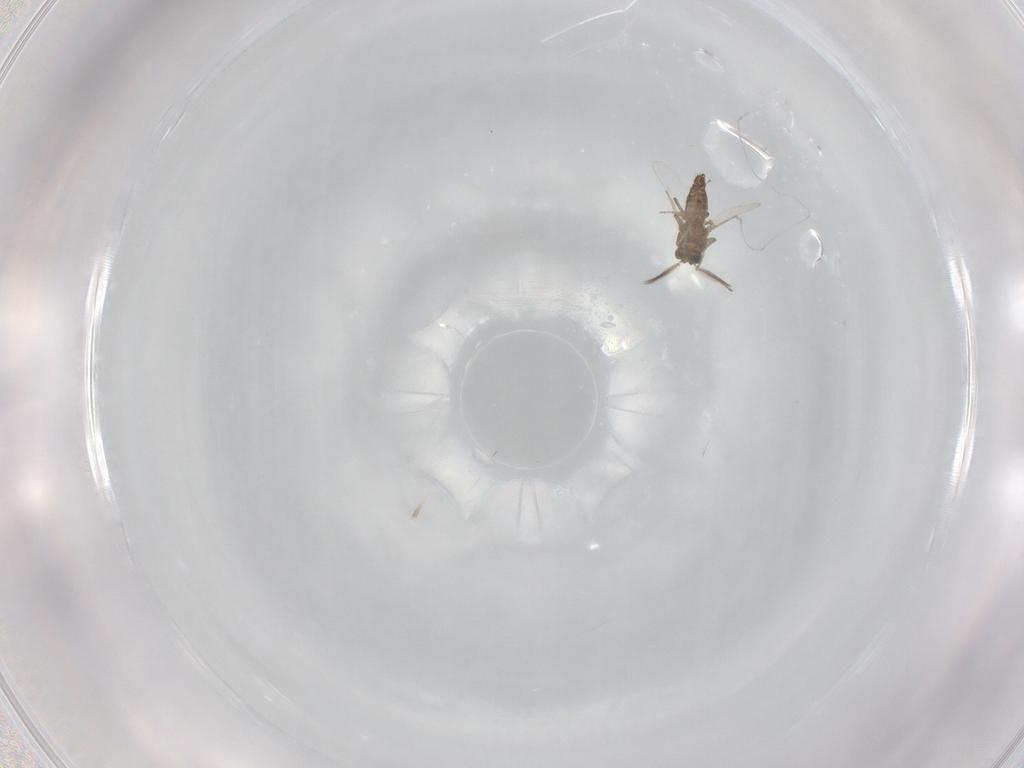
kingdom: Animalia
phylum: Arthropoda
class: Insecta
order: Diptera
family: Ceratopogonidae
